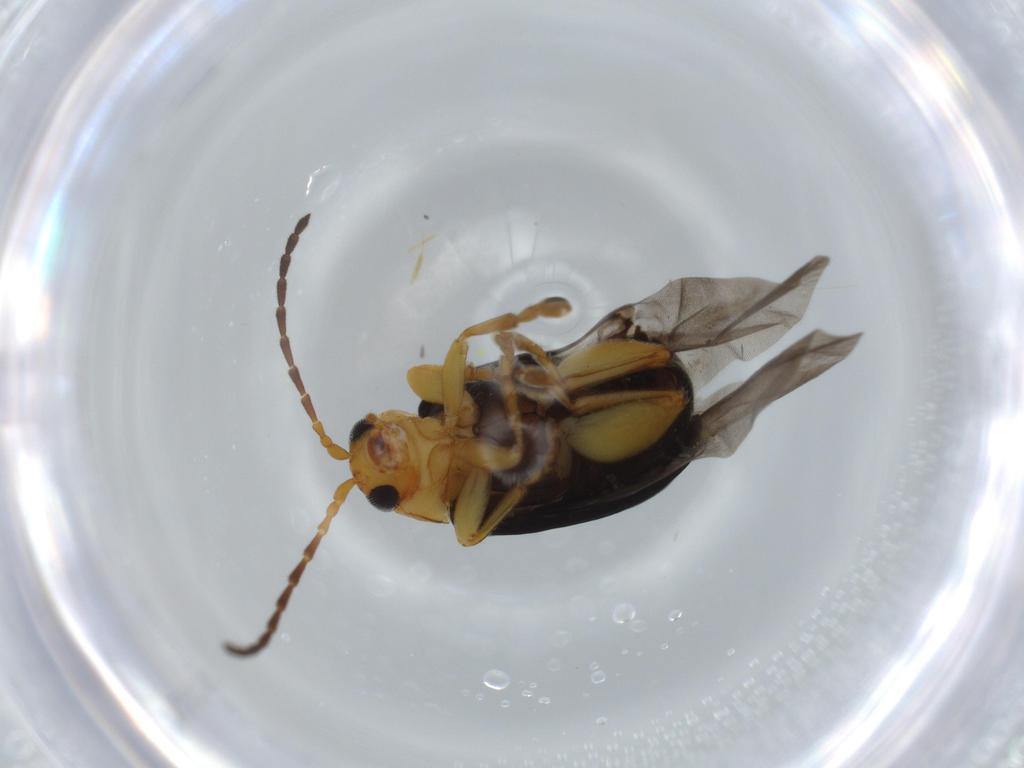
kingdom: Animalia
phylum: Arthropoda
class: Insecta
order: Coleoptera
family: Chrysomelidae
